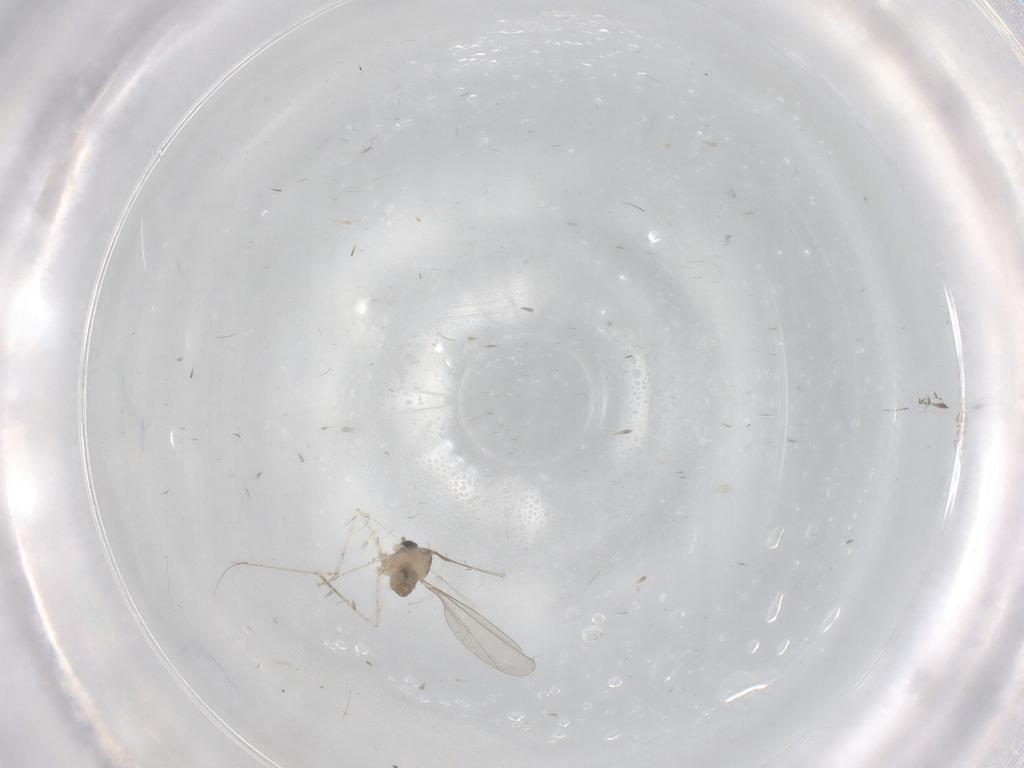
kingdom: Animalia
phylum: Arthropoda
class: Insecta
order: Diptera
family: Cecidomyiidae
